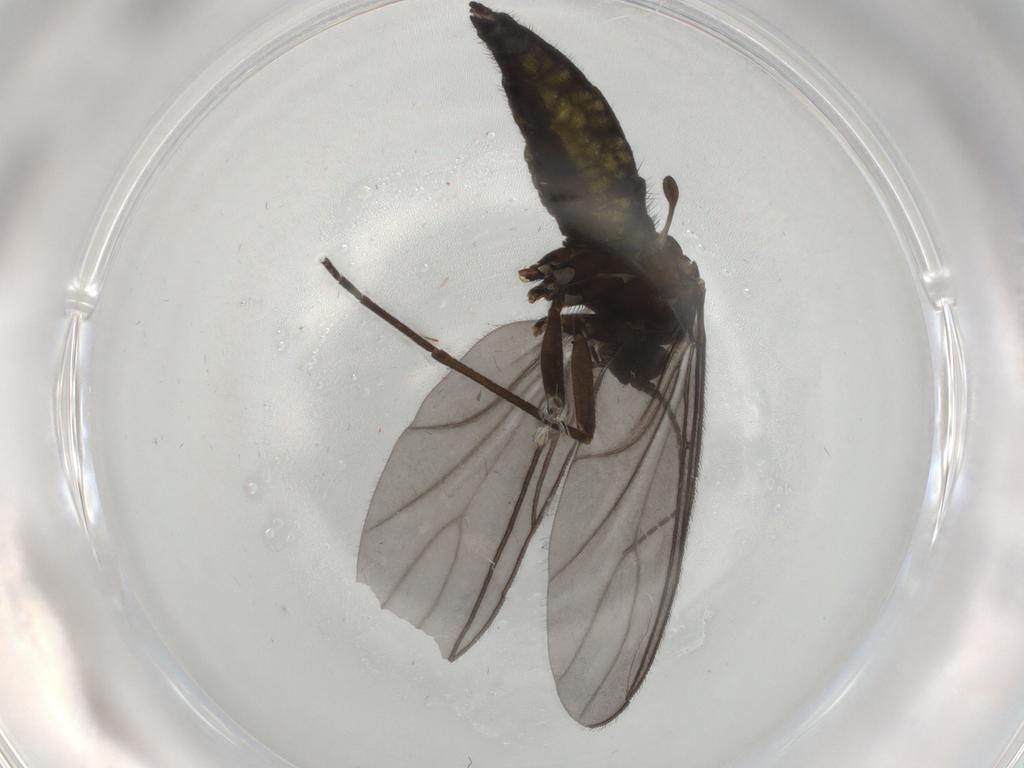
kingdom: Animalia
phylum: Arthropoda
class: Insecta
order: Diptera
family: Sciaridae
